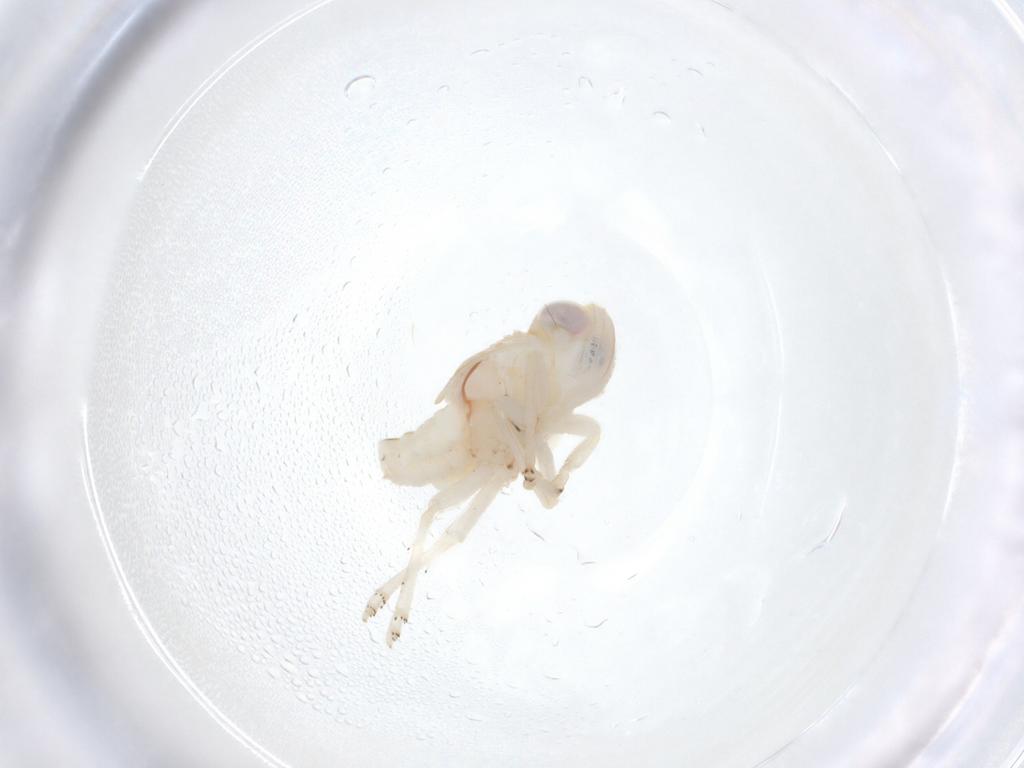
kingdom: Animalia
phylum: Arthropoda
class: Insecta
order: Hemiptera
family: Nogodinidae
